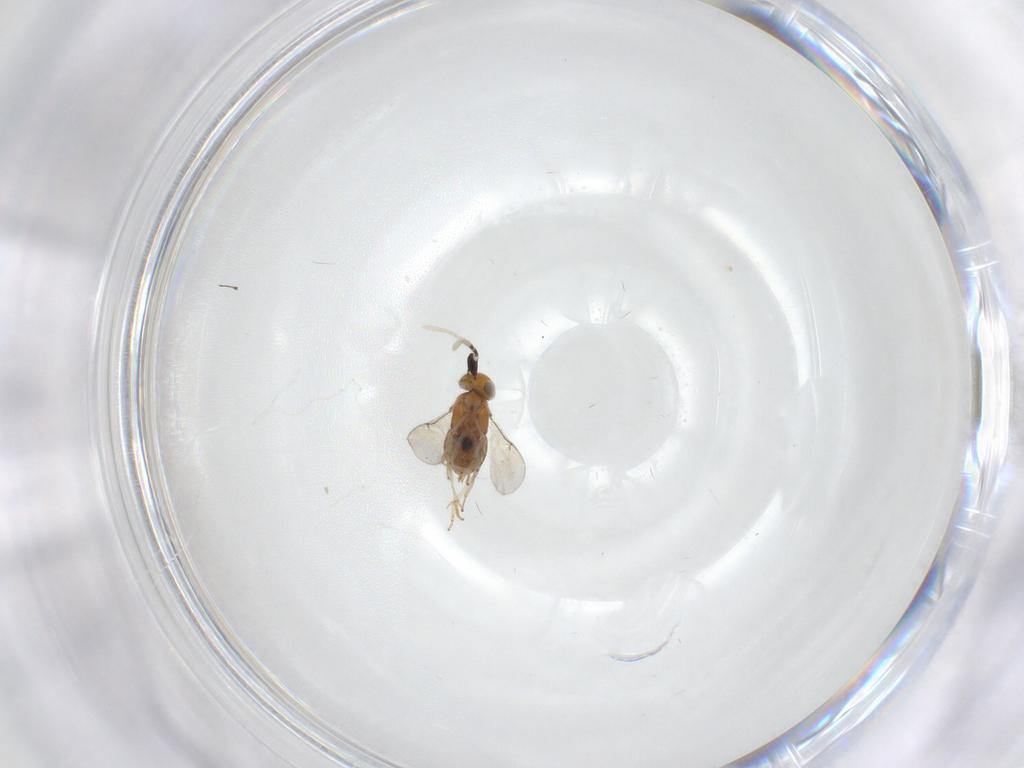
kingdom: Animalia
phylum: Arthropoda
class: Insecta
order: Hymenoptera
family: Encyrtidae
